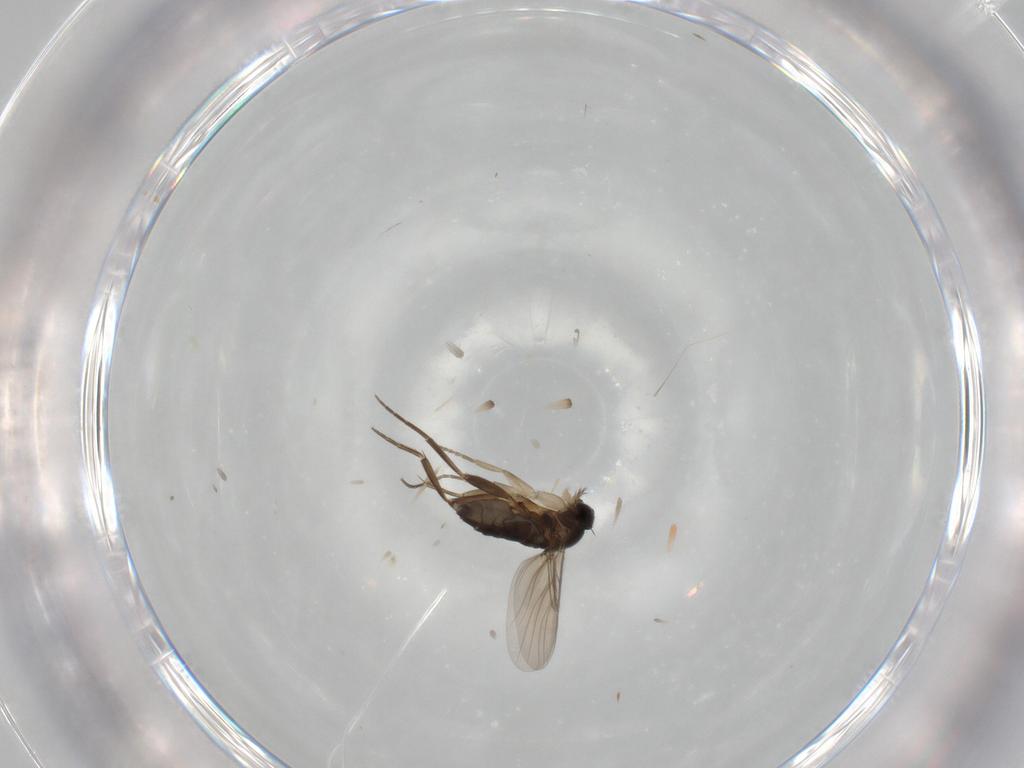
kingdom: Animalia
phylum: Arthropoda
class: Insecta
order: Diptera
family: Phoridae
